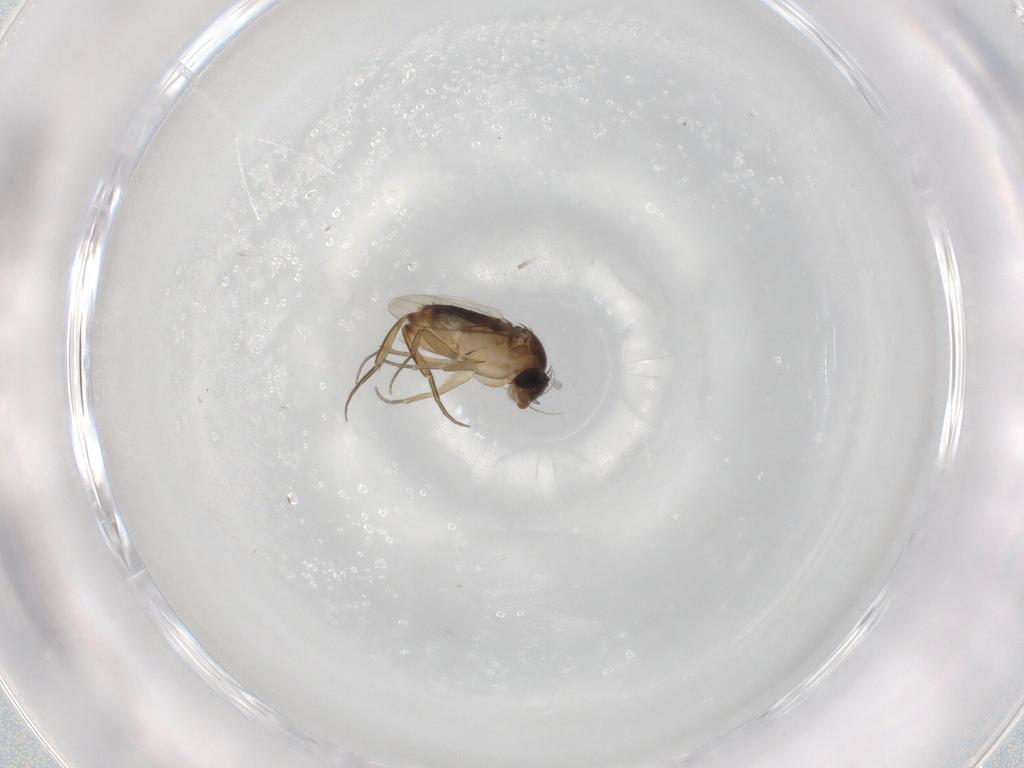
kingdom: Animalia
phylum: Arthropoda
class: Insecta
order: Diptera
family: Phoridae
